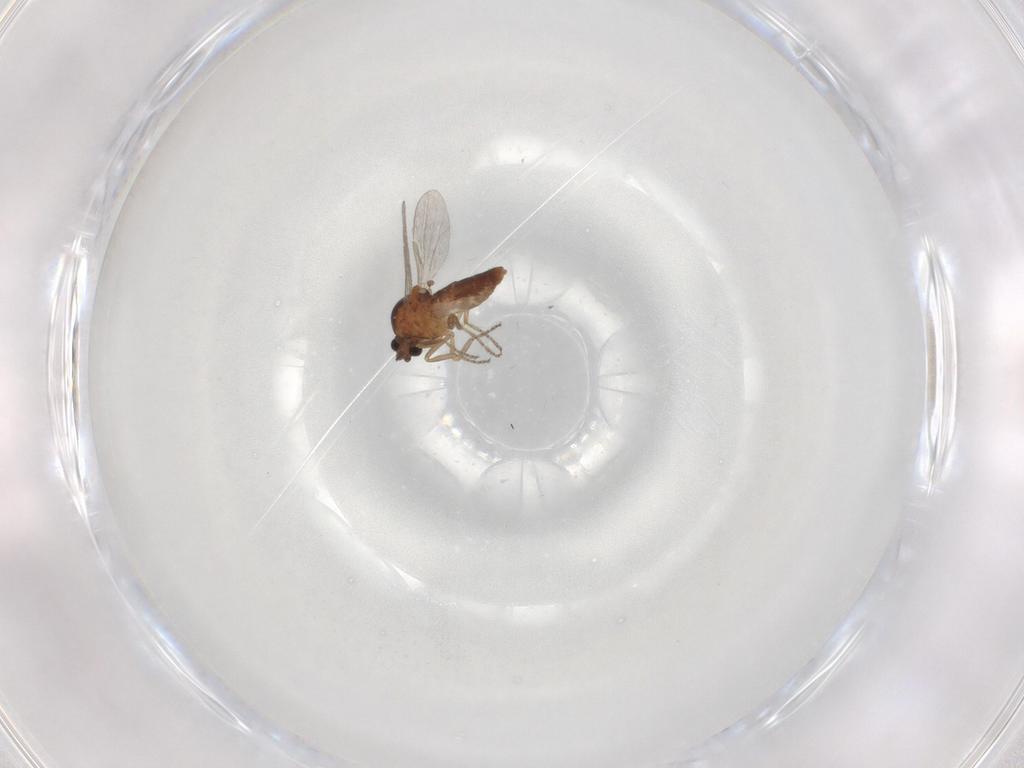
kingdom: Animalia
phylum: Arthropoda
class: Insecta
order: Diptera
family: Ceratopogonidae
